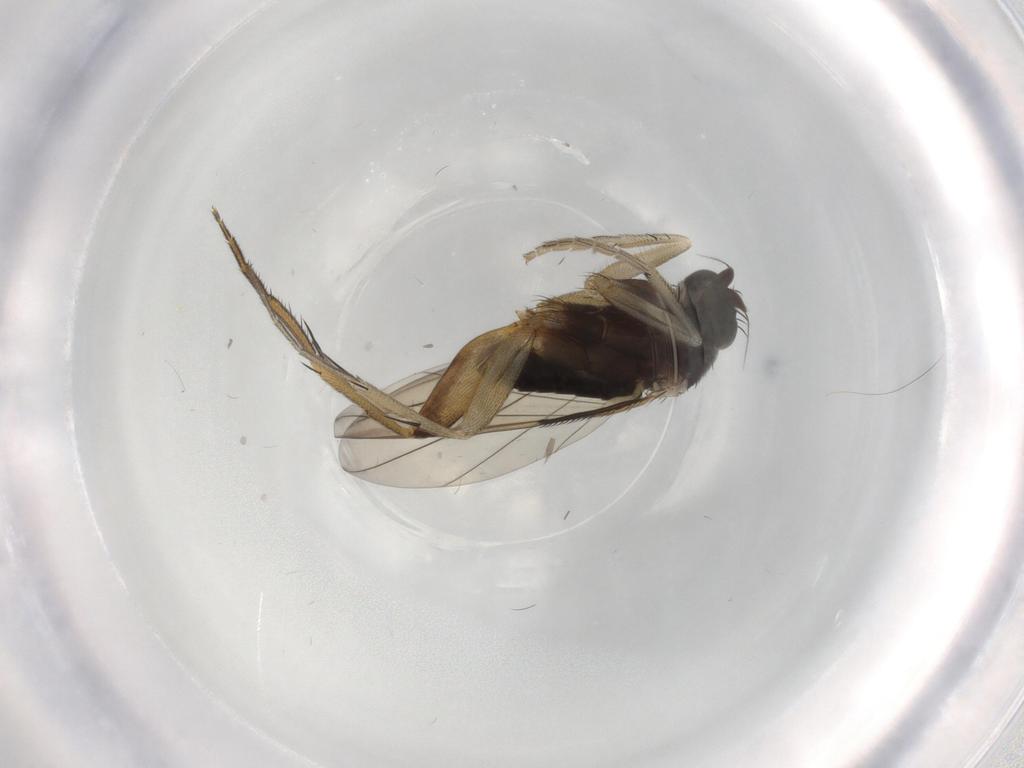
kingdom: Animalia
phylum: Arthropoda
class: Insecta
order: Diptera
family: Phoridae
